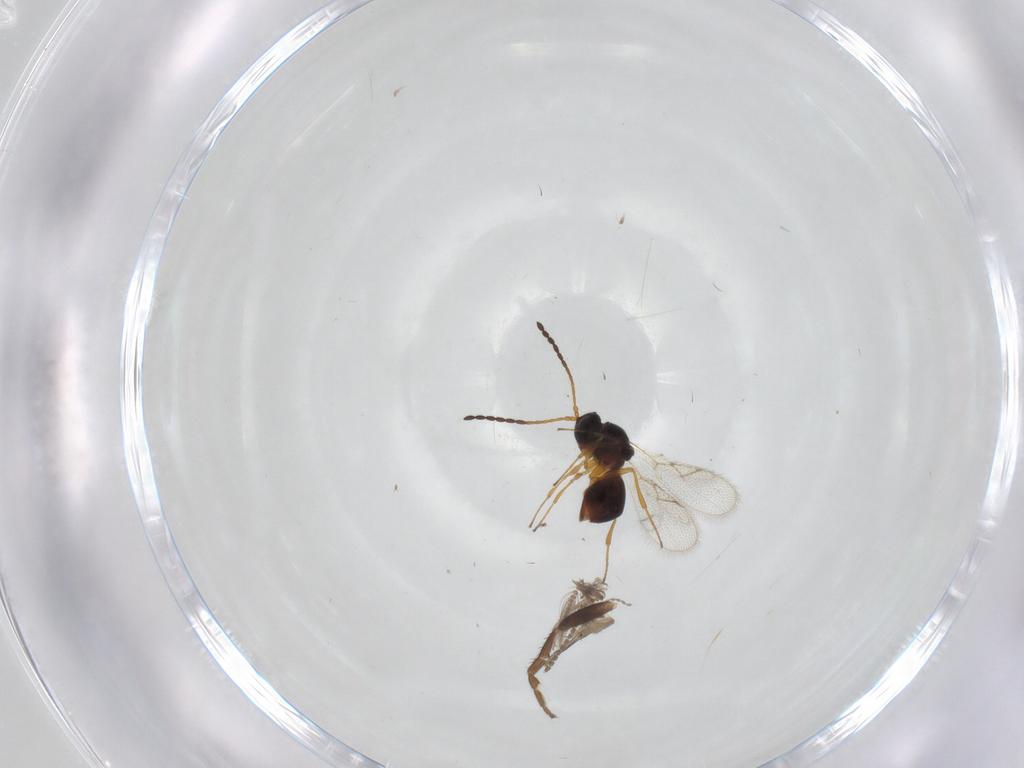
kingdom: Animalia
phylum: Arthropoda
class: Insecta
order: Hymenoptera
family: Figitidae
